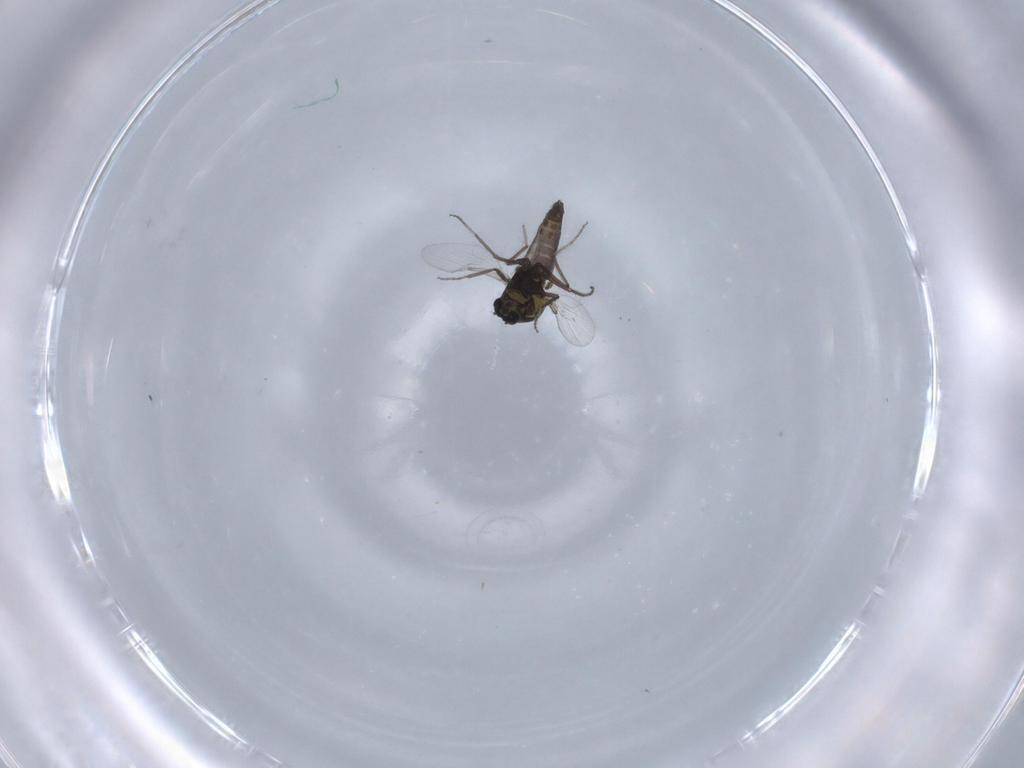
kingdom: Animalia
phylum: Arthropoda
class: Insecta
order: Diptera
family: Ceratopogonidae
